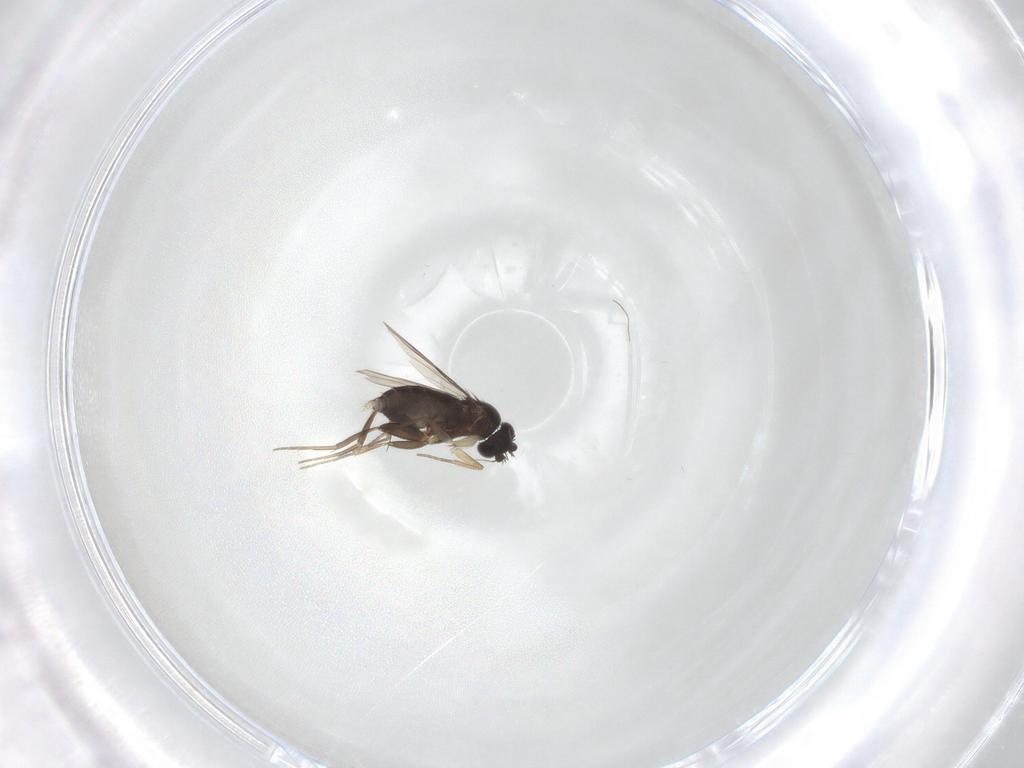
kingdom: Animalia
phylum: Arthropoda
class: Insecta
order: Diptera
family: Phoridae
